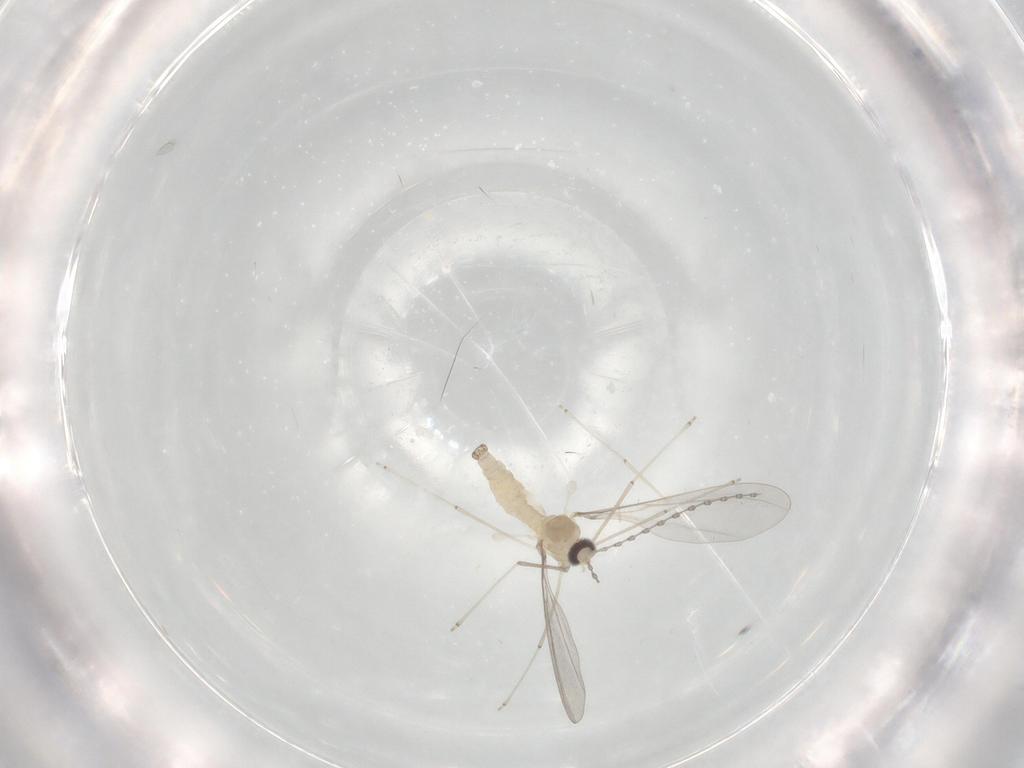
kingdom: Animalia
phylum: Arthropoda
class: Insecta
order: Diptera
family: Cecidomyiidae
